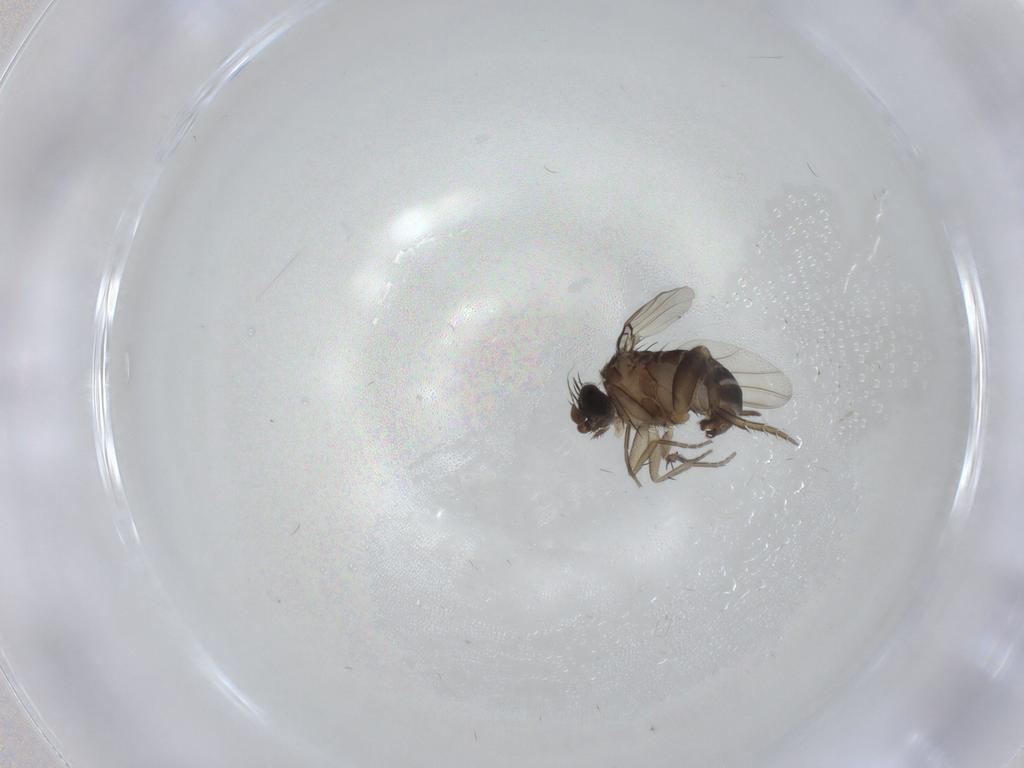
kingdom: Animalia
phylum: Arthropoda
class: Insecta
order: Diptera
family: Phoridae
